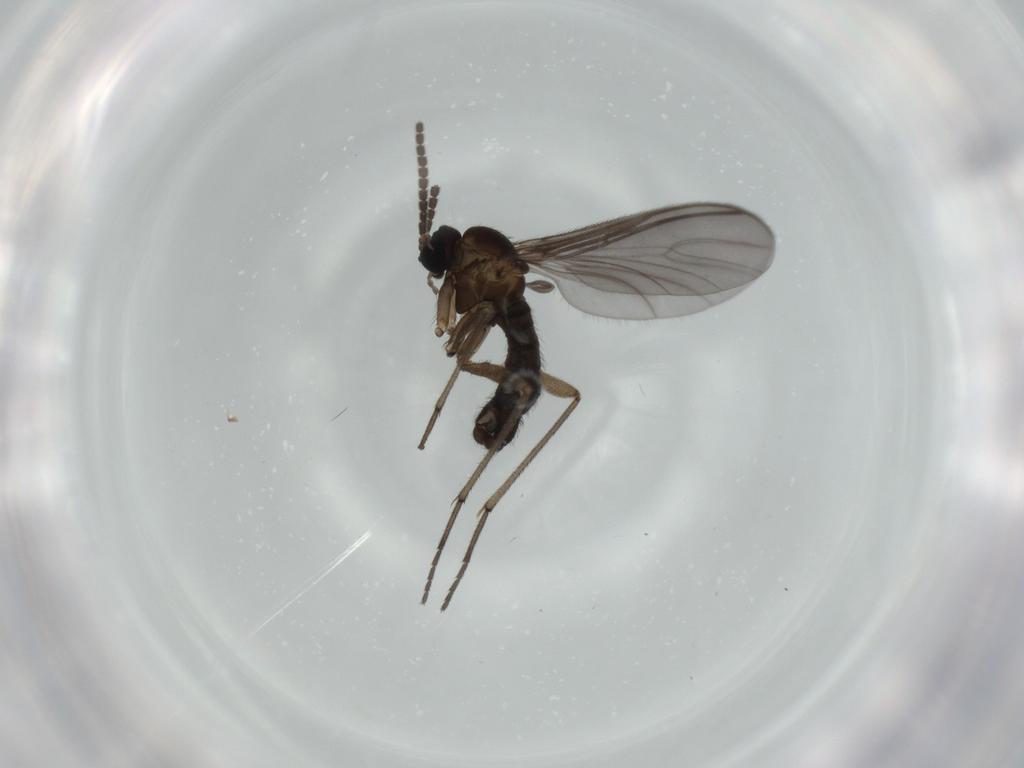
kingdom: Animalia
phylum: Arthropoda
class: Insecta
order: Diptera
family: Sciaridae
